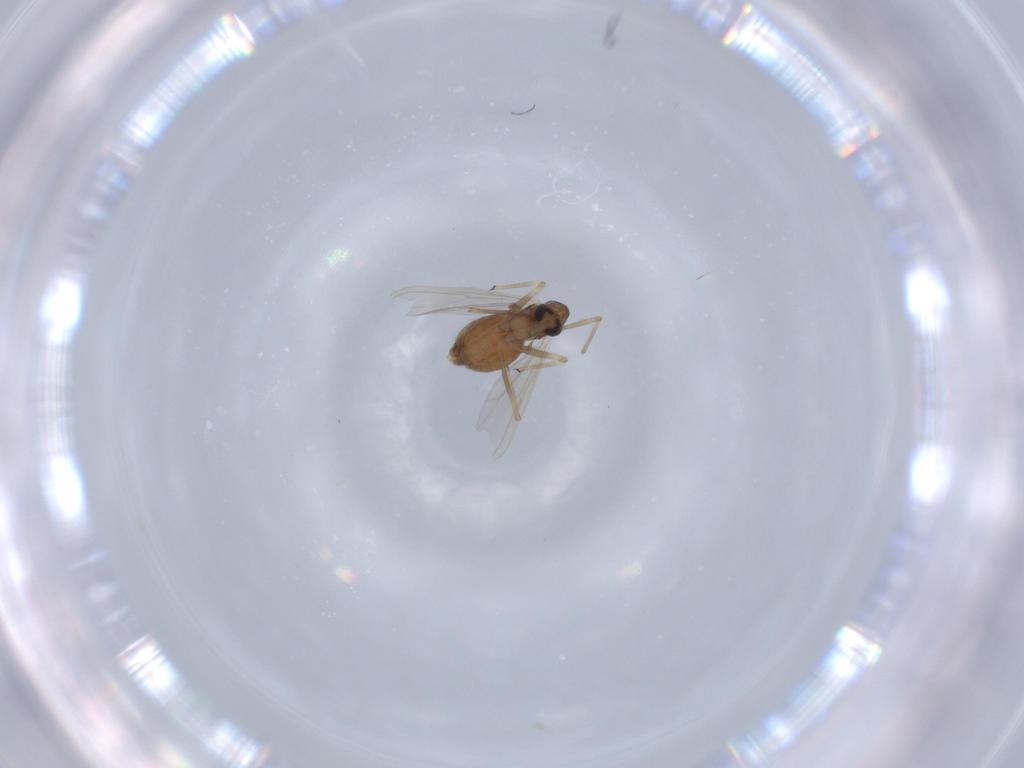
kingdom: Animalia
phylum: Arthropoda
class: Insecta
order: Diptera
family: Chironomidae
